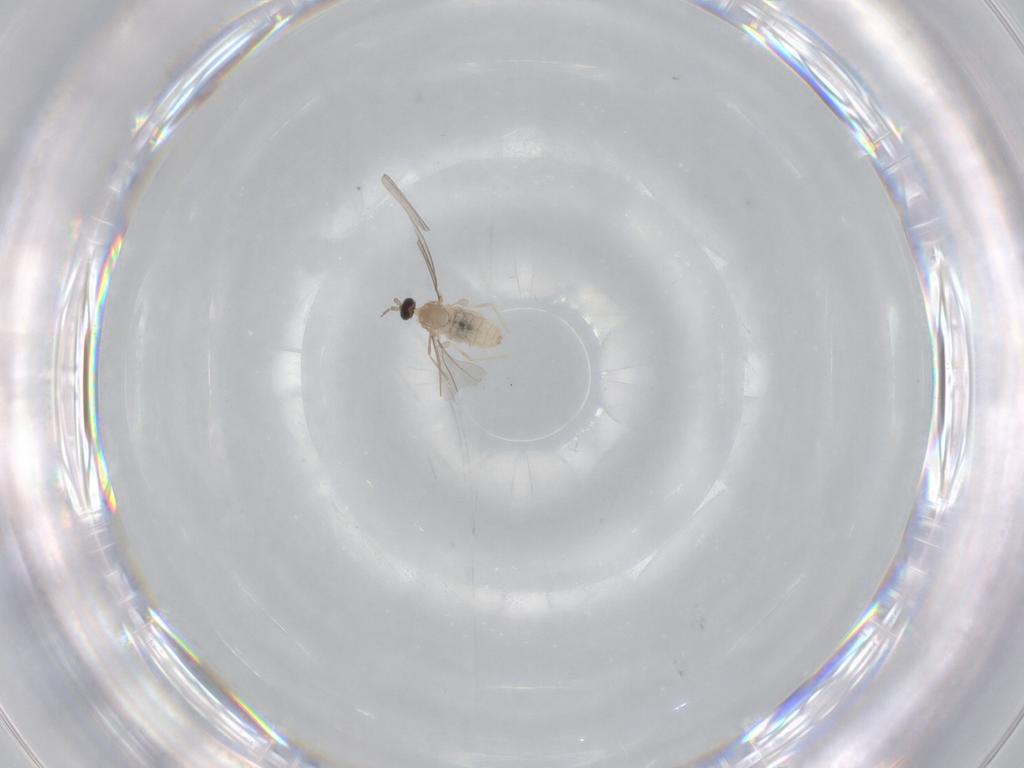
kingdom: Animalia
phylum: Arthropoda
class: Insecta
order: Diptera
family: Cecidomyiidae
